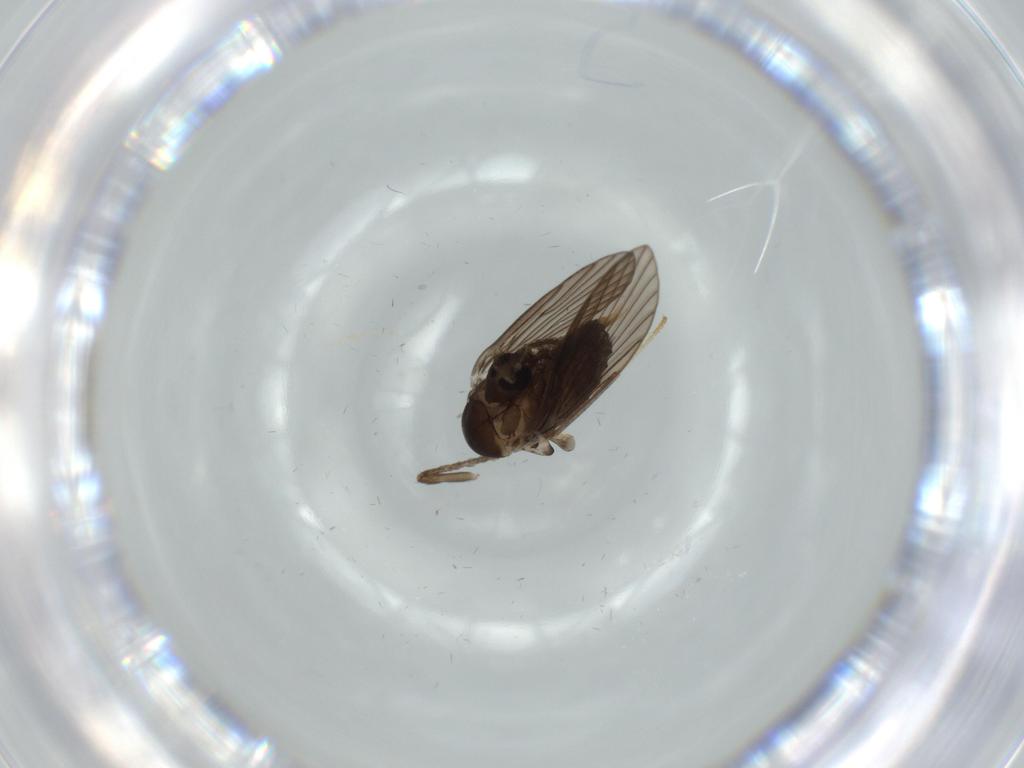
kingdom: Animalia
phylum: Arthropoda
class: Insecta
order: Diptera
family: Psychodidae
